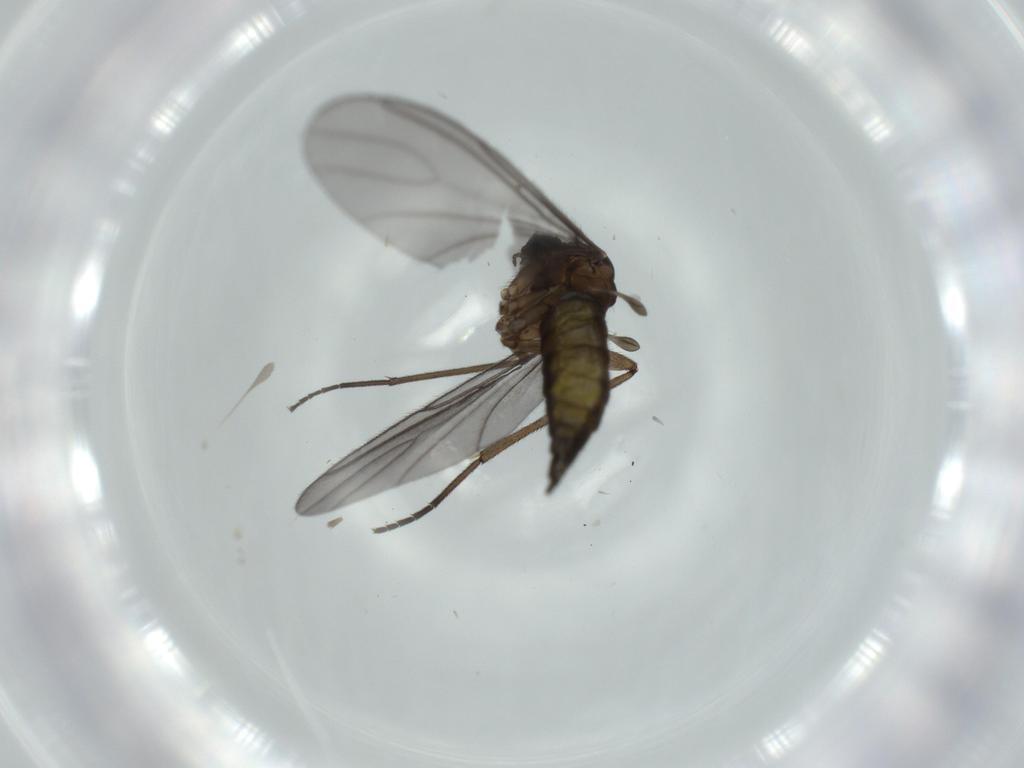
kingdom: Animalia
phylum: Arthropoda
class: Insecta
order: Diptera
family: Sciaridae
